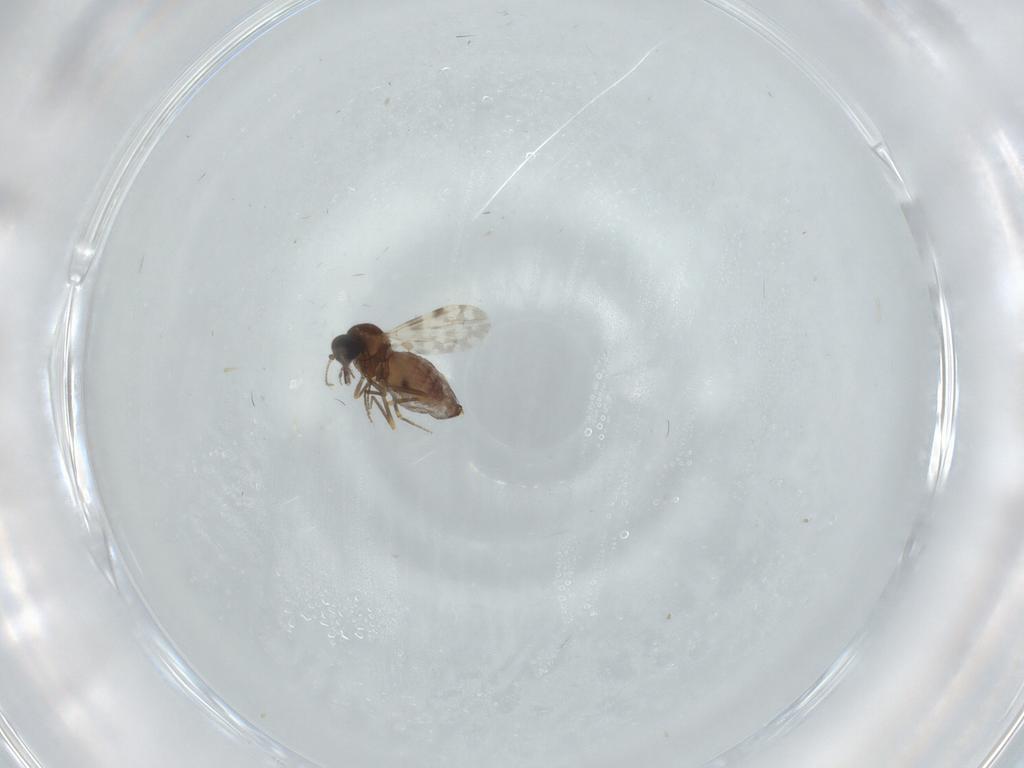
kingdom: Animalia
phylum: Arthropoda
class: Insecta
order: Diptera
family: Ceratopogonidae
